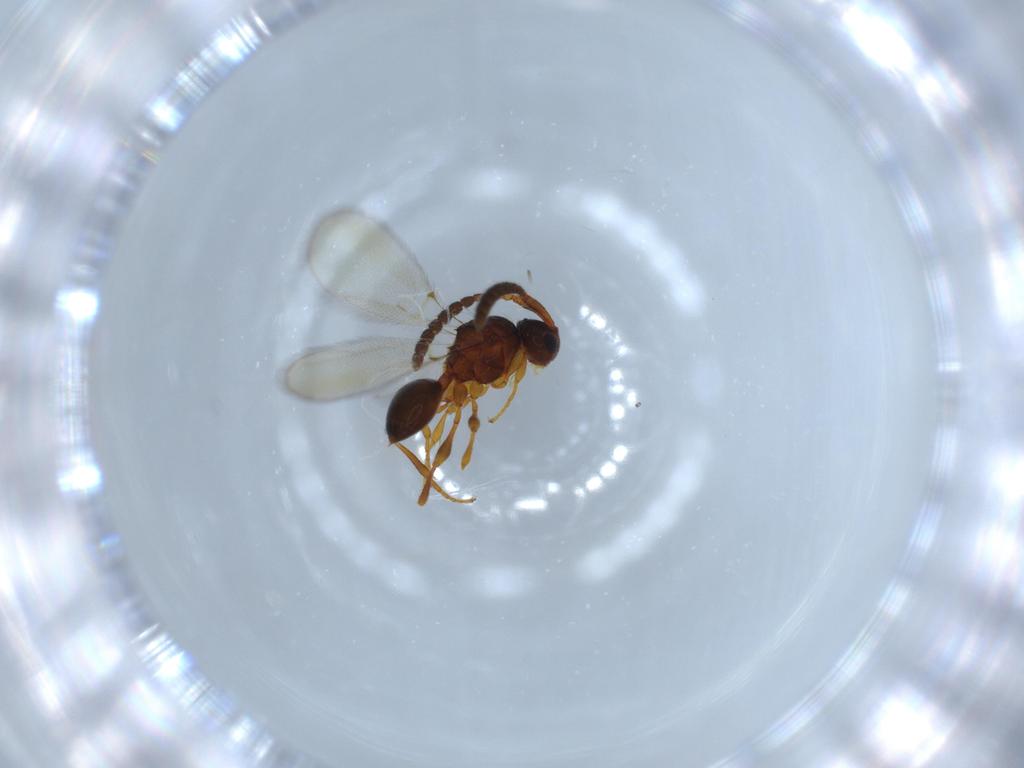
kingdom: Animalia
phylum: Arthropoda
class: Insecta
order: Hymenoptera
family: Diapriidae
